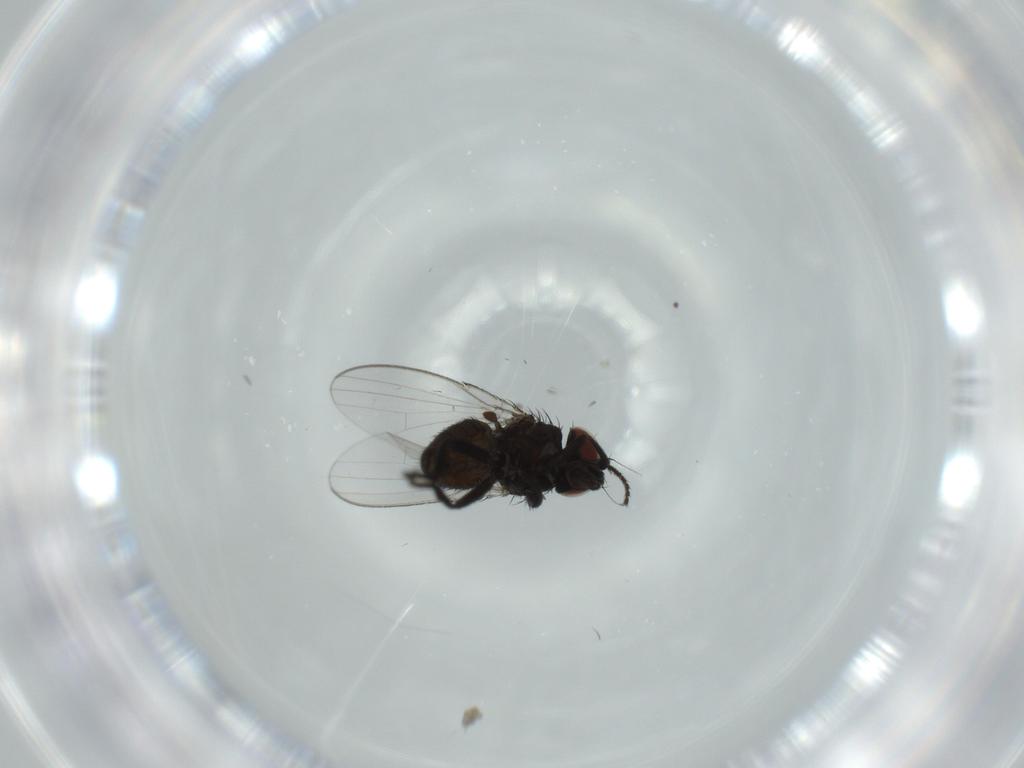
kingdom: Animalia
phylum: Arthropoda
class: Insecta
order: Diptera
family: Milichiidae
